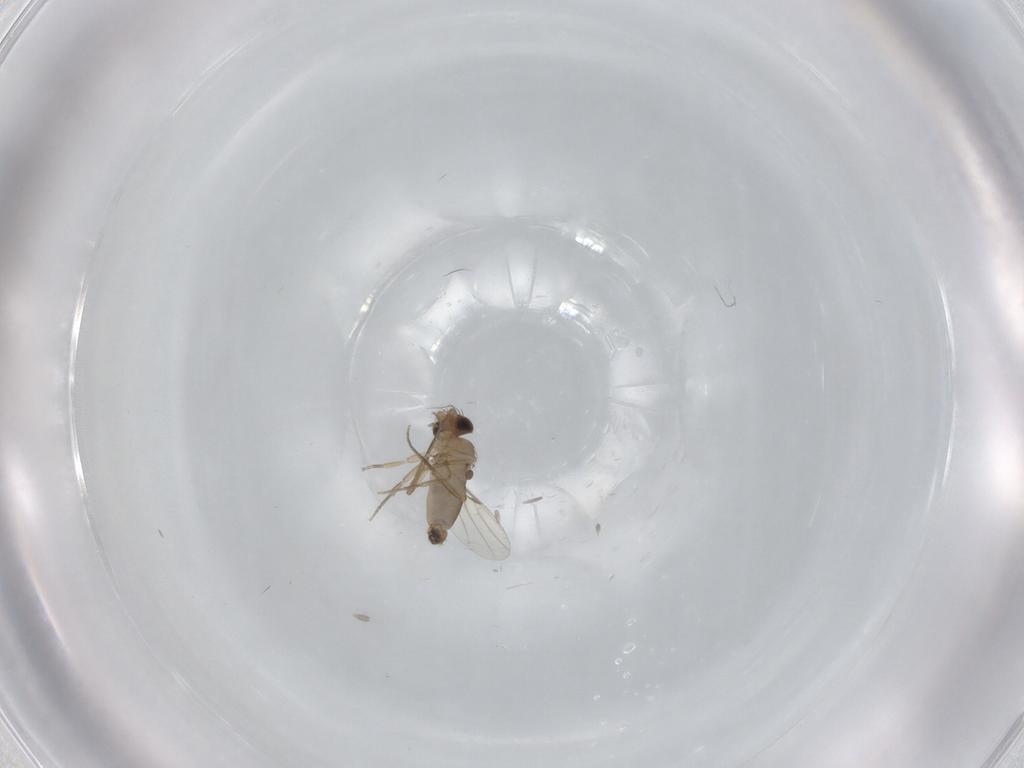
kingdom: Animalia
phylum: Arthropoda
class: Insecta
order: Diptera
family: Phoridae
